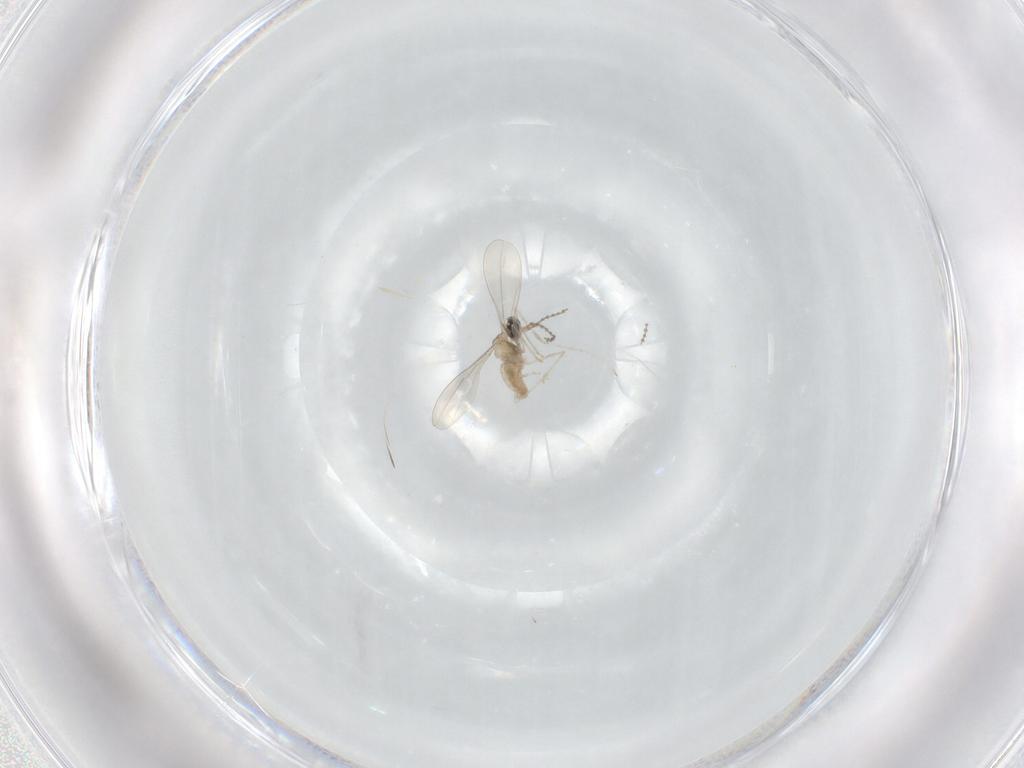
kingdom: Animalia
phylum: Arthropoda
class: Insecta
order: Diptera
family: Cecidomyiidae
